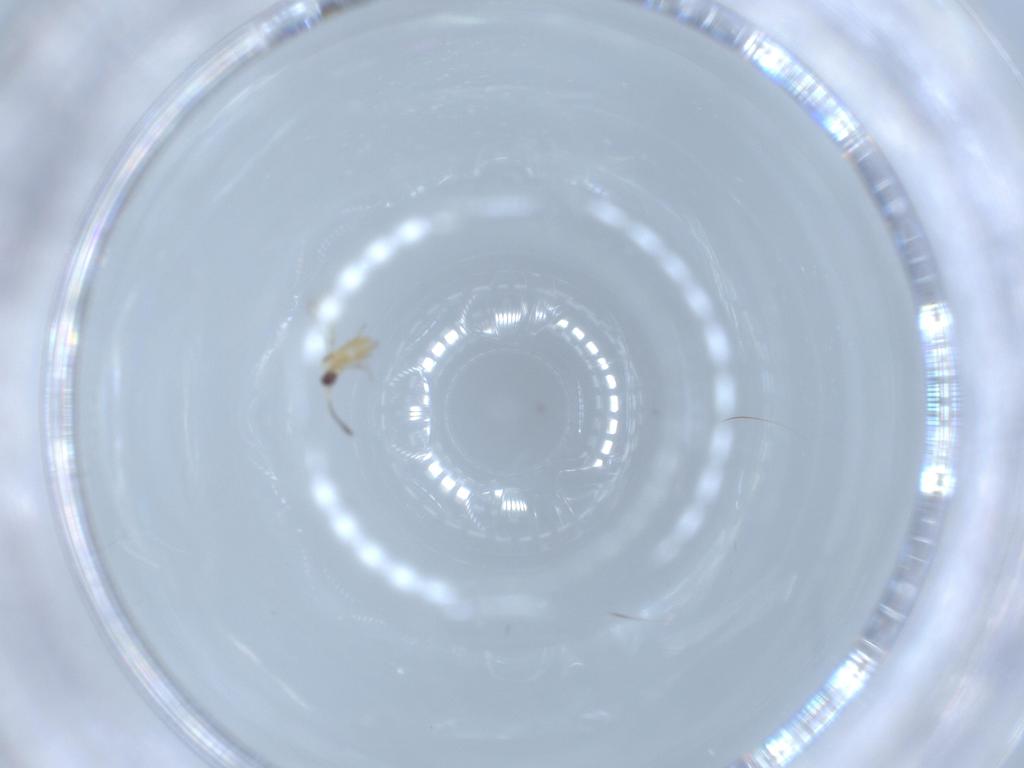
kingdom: Animalia
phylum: Arthropoda
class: Insecta
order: Hymenoptera
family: Mymaridae
